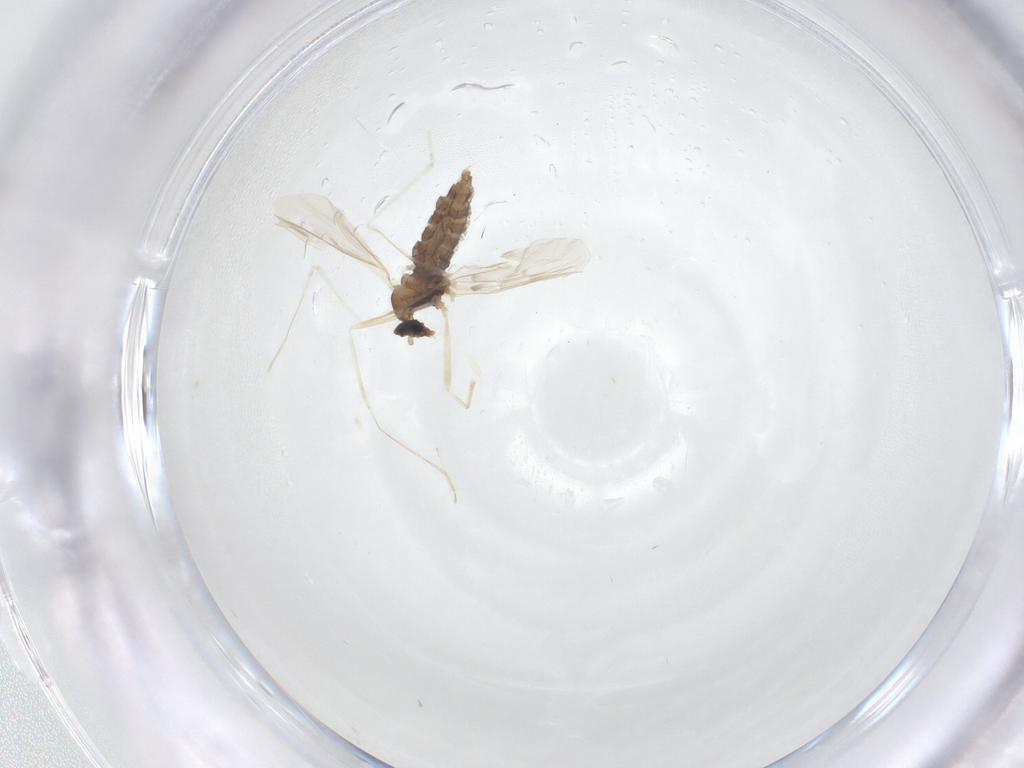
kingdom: Animalia
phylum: Arthropoda
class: Insecta
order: Diptera
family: Cecidomyiidae
